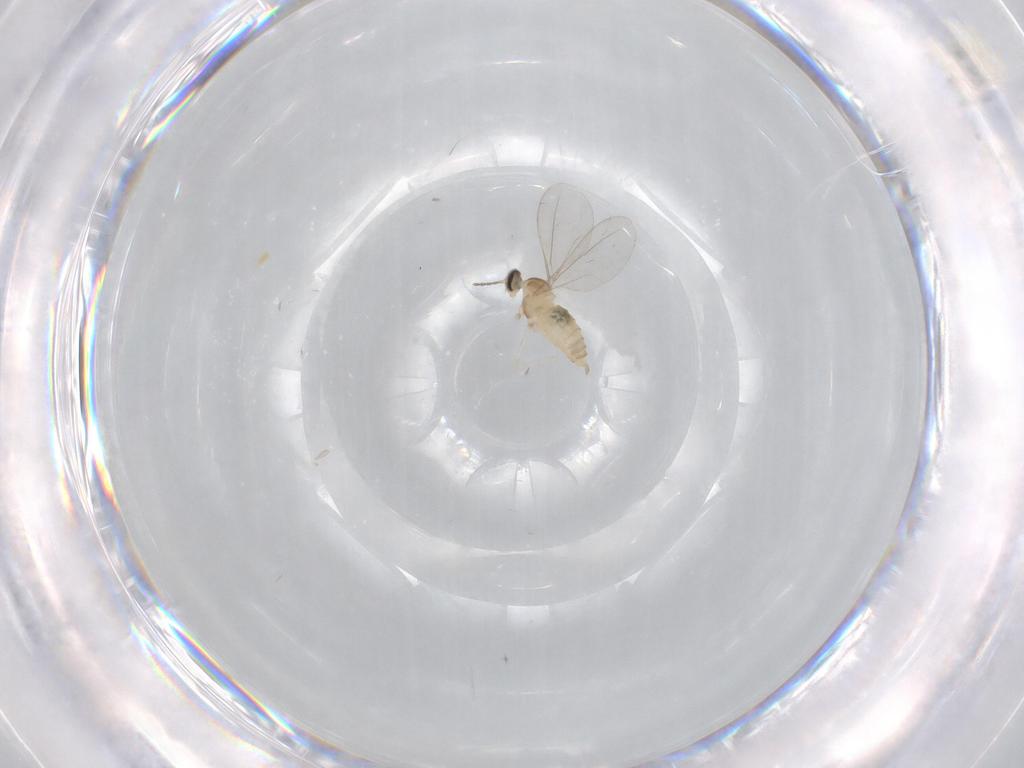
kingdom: Animalia
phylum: Arthropoda
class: Insecta
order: Diptera
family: Cecidomyiidae
